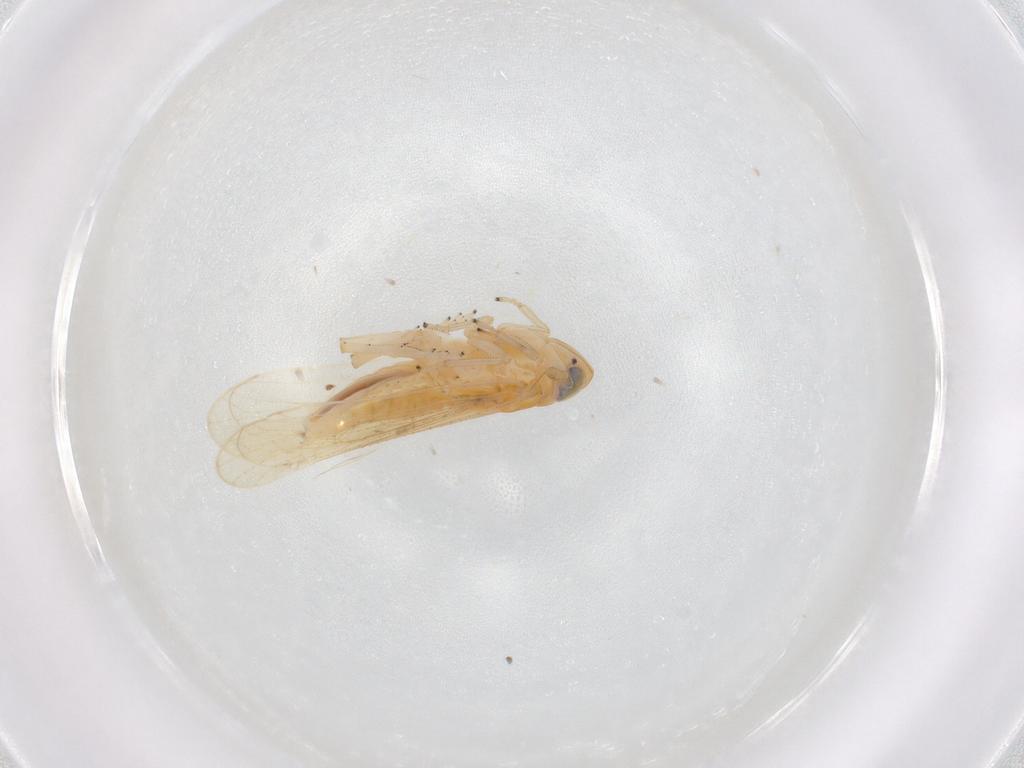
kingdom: Animalia
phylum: Arthropoda
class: Insecta
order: Hemiptera
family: Delphacidae
